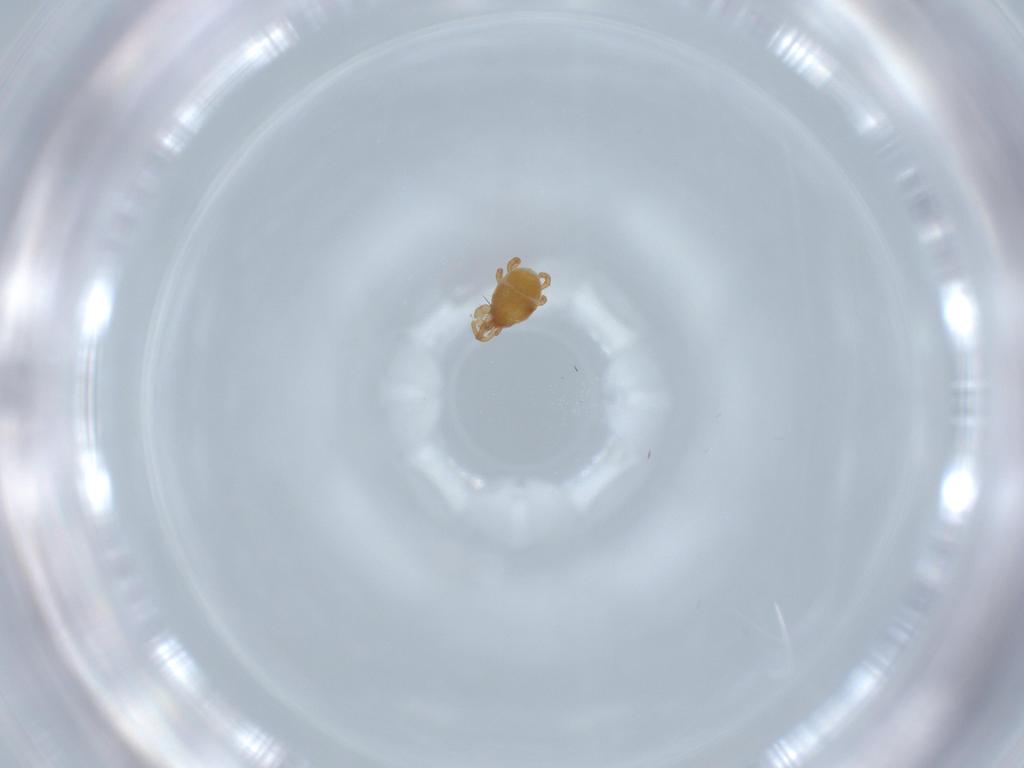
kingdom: Animalia
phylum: Arthropoda
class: Arachnida
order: Mesostigmata
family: Parasitidae
